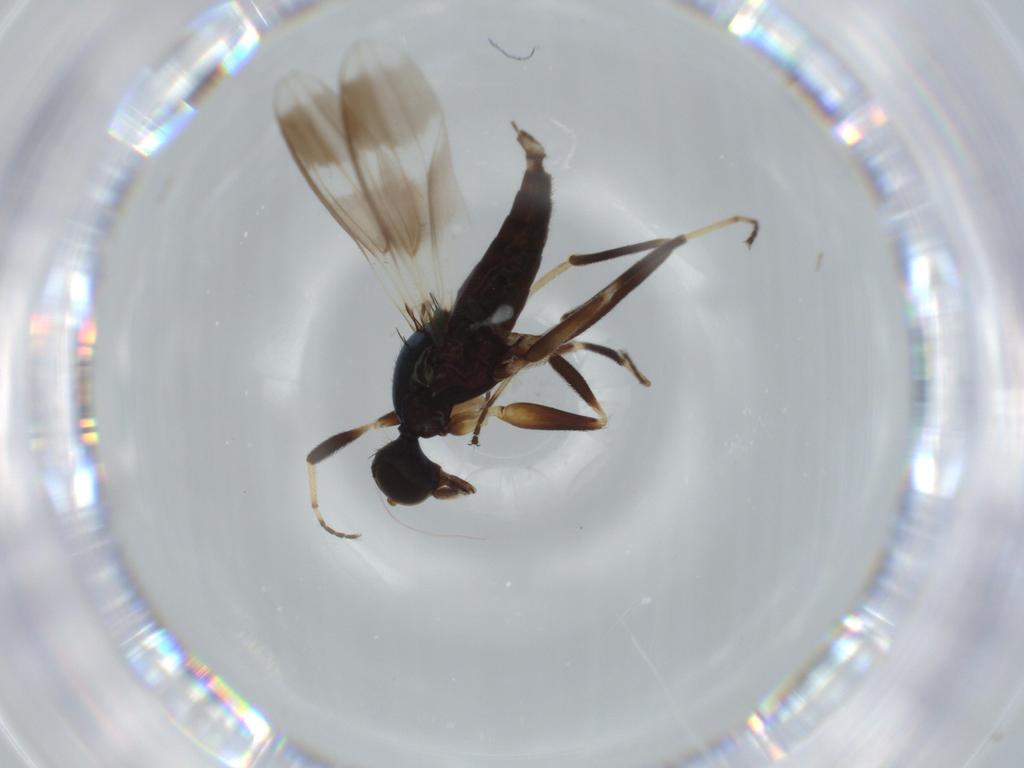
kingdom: Animalia
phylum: Arthropoda
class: Insecta
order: Diptera
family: Hybotidae
